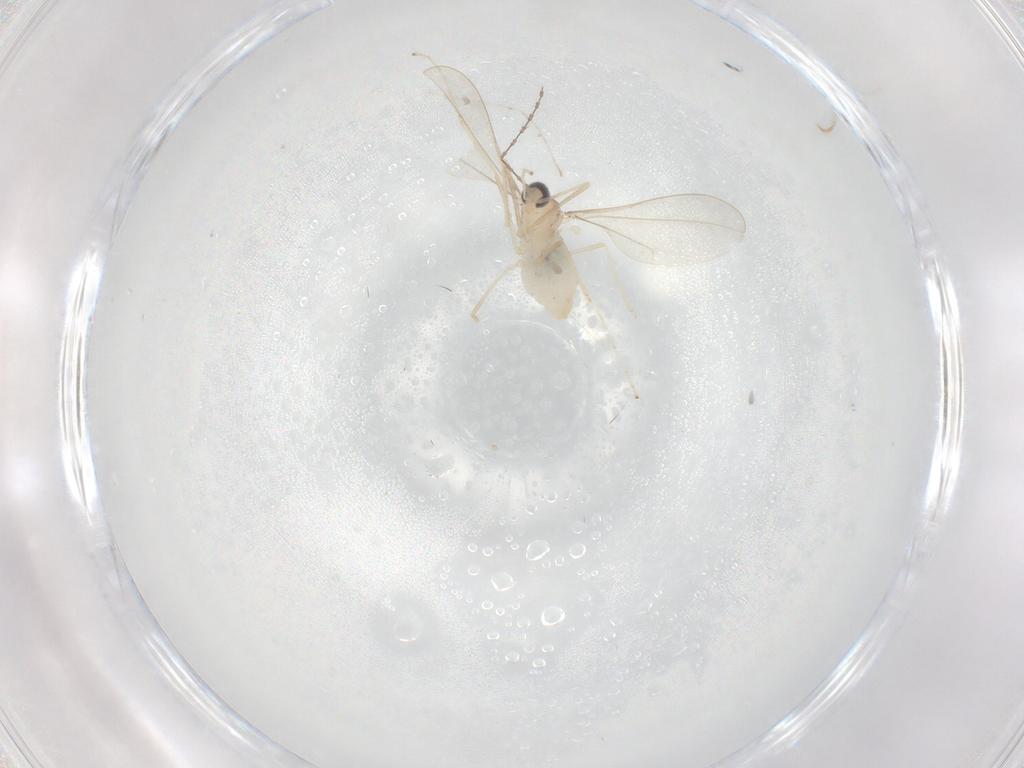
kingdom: Animalia
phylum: Arthropoda
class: Insecta
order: Diptera
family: Cecidomyiidae
